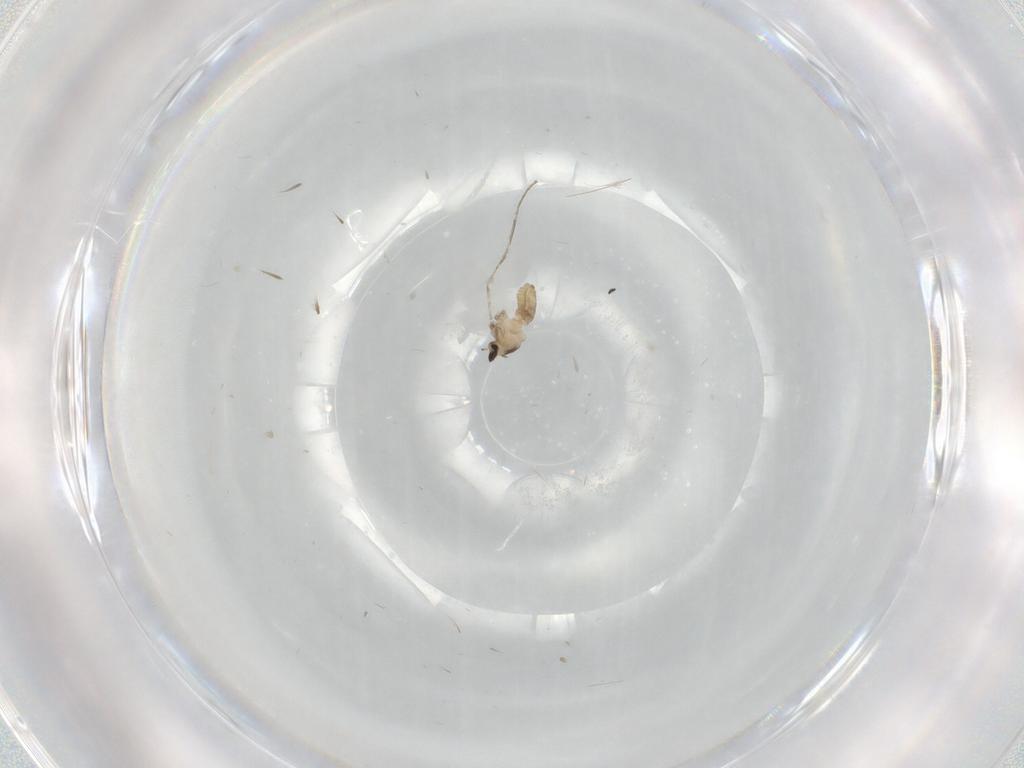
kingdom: Animalia
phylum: Arthropoda
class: Insecta
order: Diptera
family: Cecidomyiidae
